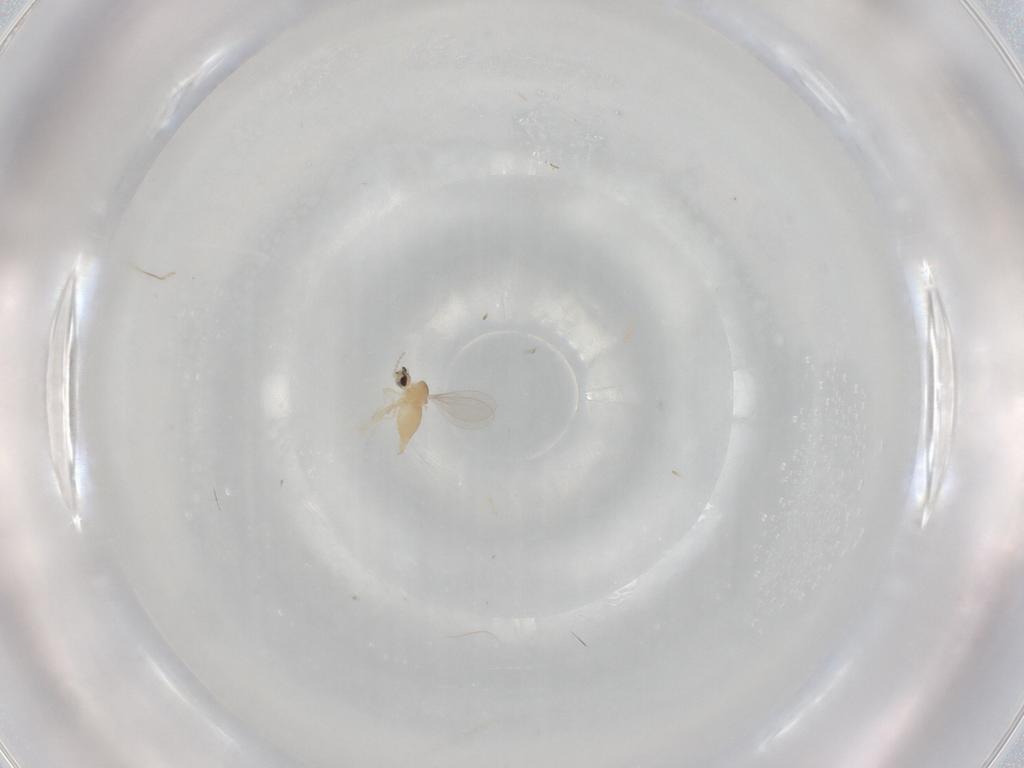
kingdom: Animalia
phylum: Arthropoda
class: Insecta
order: Diptera
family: Cecidomyiidae
